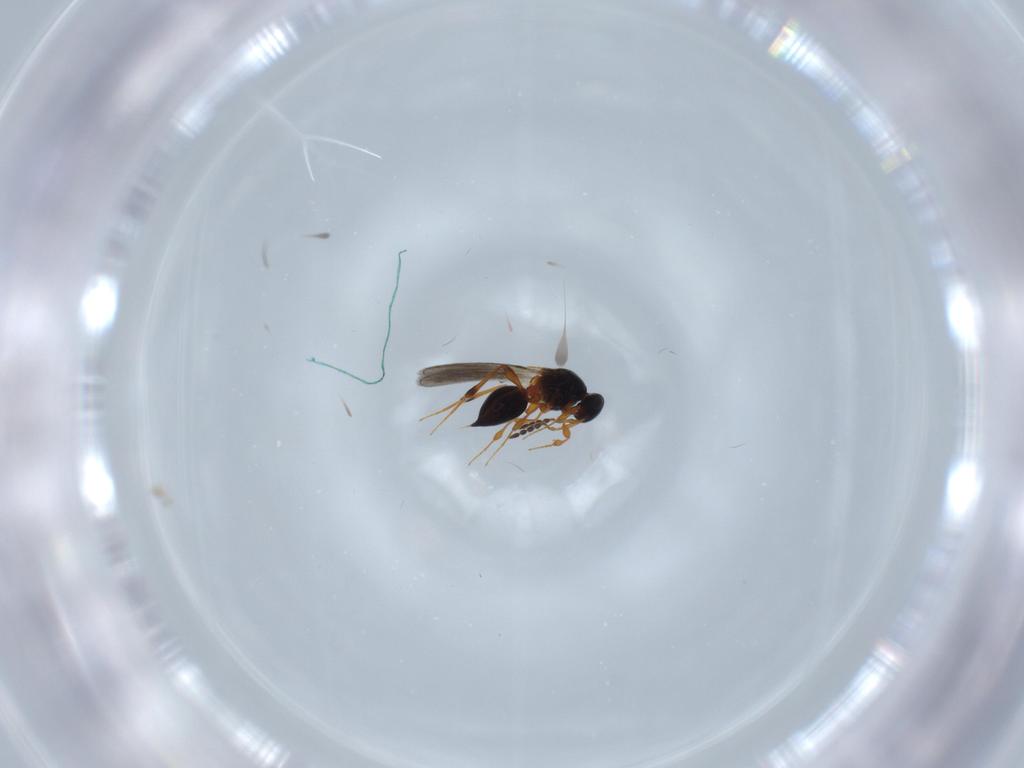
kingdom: Animalia
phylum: Arthropoda
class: Insecta
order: Hymenoptera
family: Platygastridae
